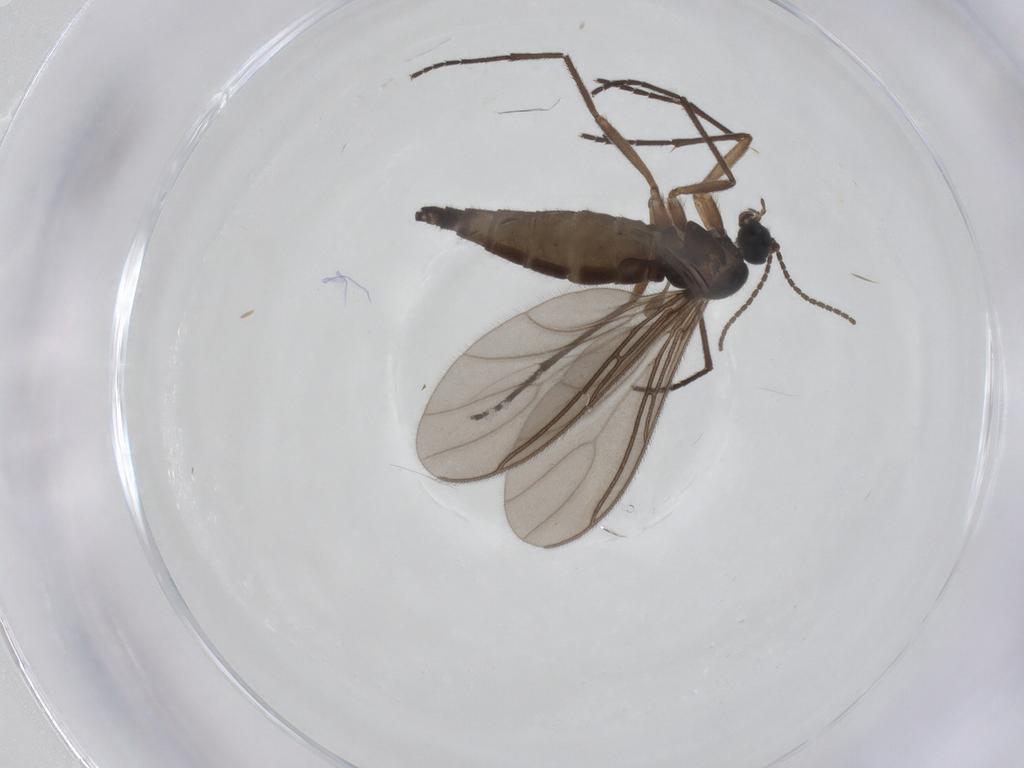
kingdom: Animalia
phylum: Arthropoda
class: Insecta
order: Diptera
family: Sciaridae
